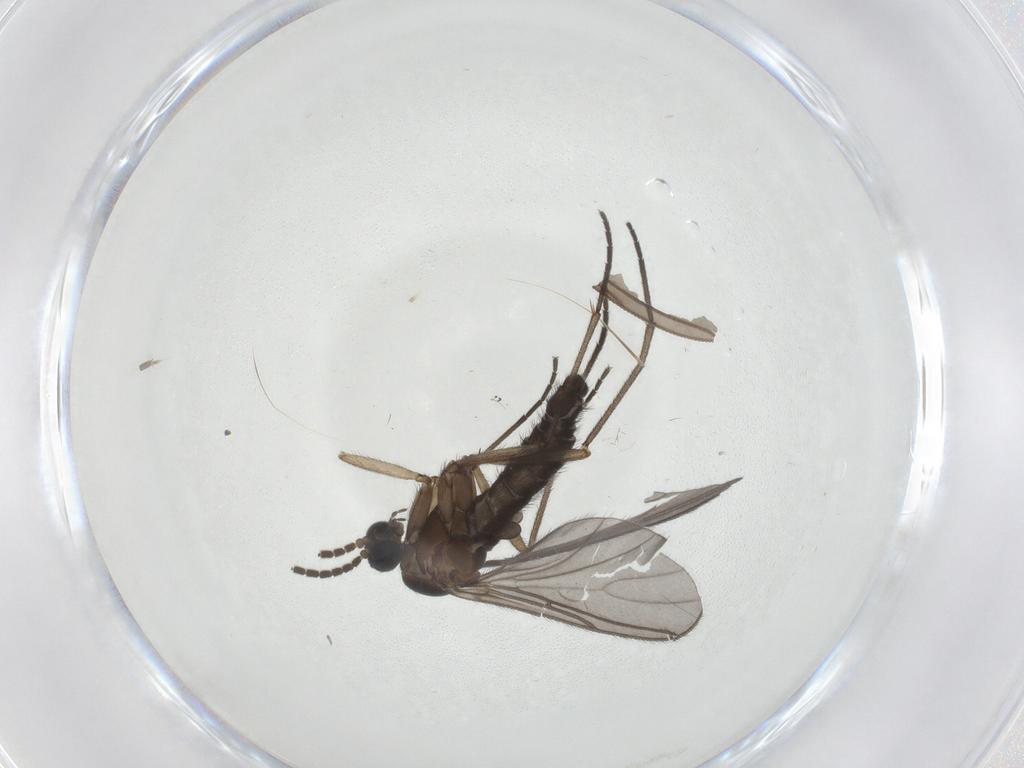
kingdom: Animalia
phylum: Arthropoda
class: Insecta
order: Diptera
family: Sciaridae
